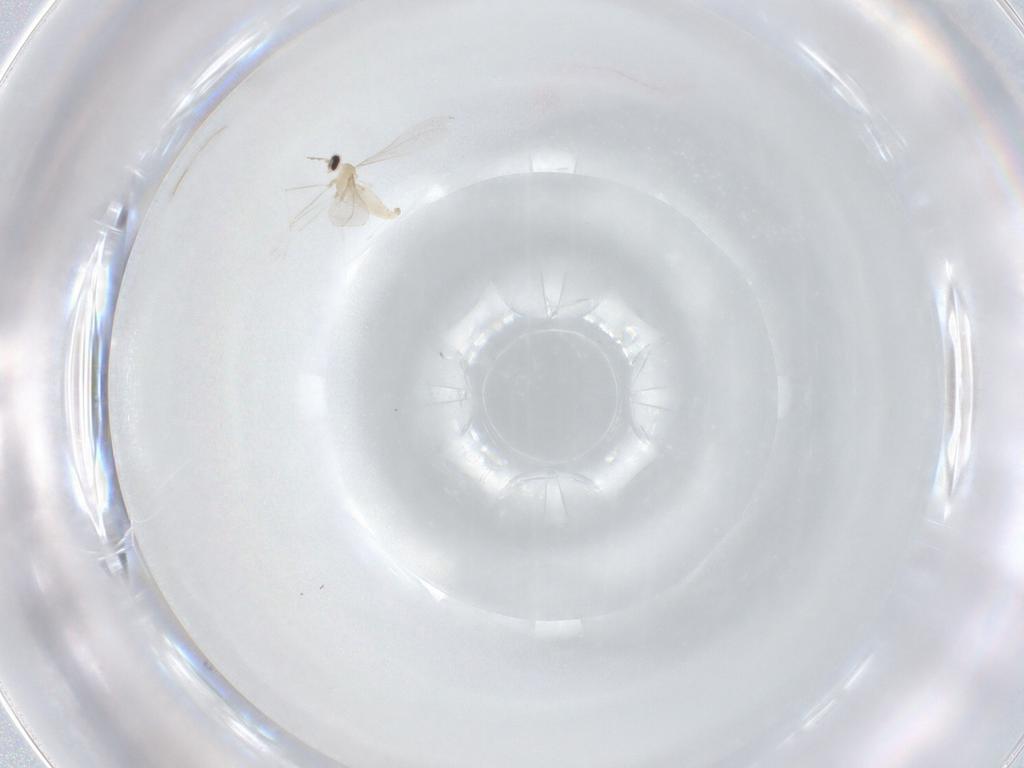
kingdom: Animalia
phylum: Arthropoda
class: Insecta
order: Diptera
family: Cecidomyiidae
